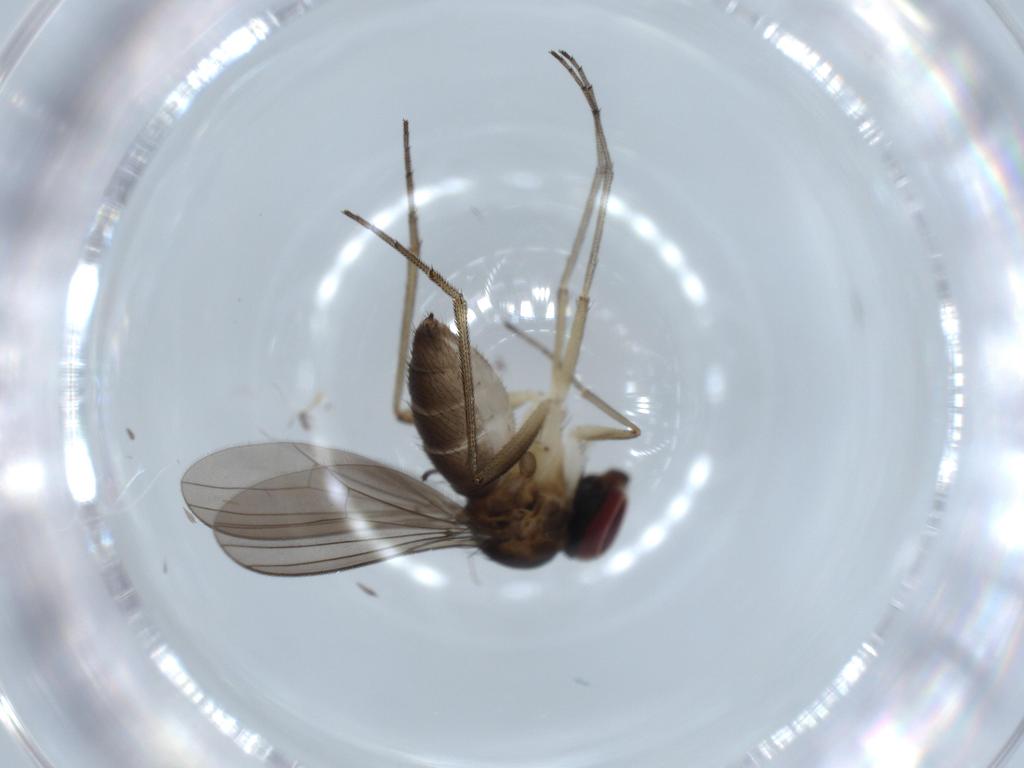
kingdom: Animalia
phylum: Arthropoda
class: Insecta
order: Diptera
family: Dolichopodidae
